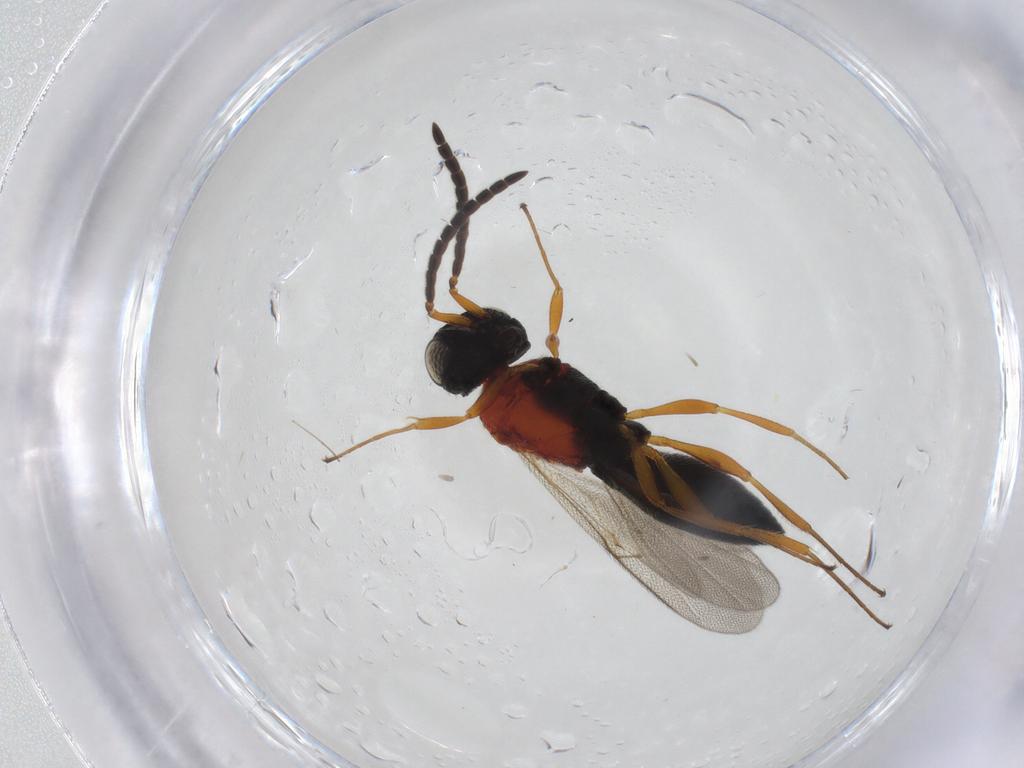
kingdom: Animalia
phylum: Arthropoda
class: Insecta
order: Hymenoptera
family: Scelionidae
